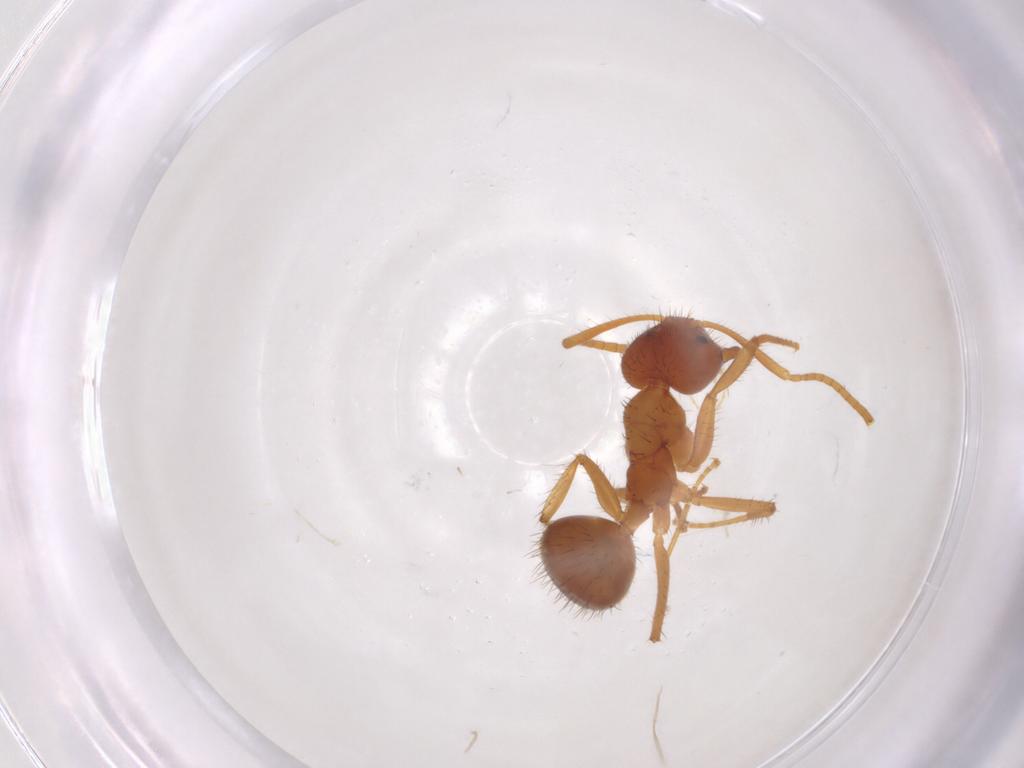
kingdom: Animalia
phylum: Arthropoda
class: Insecta
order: Hymenoptera
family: Formicidae
